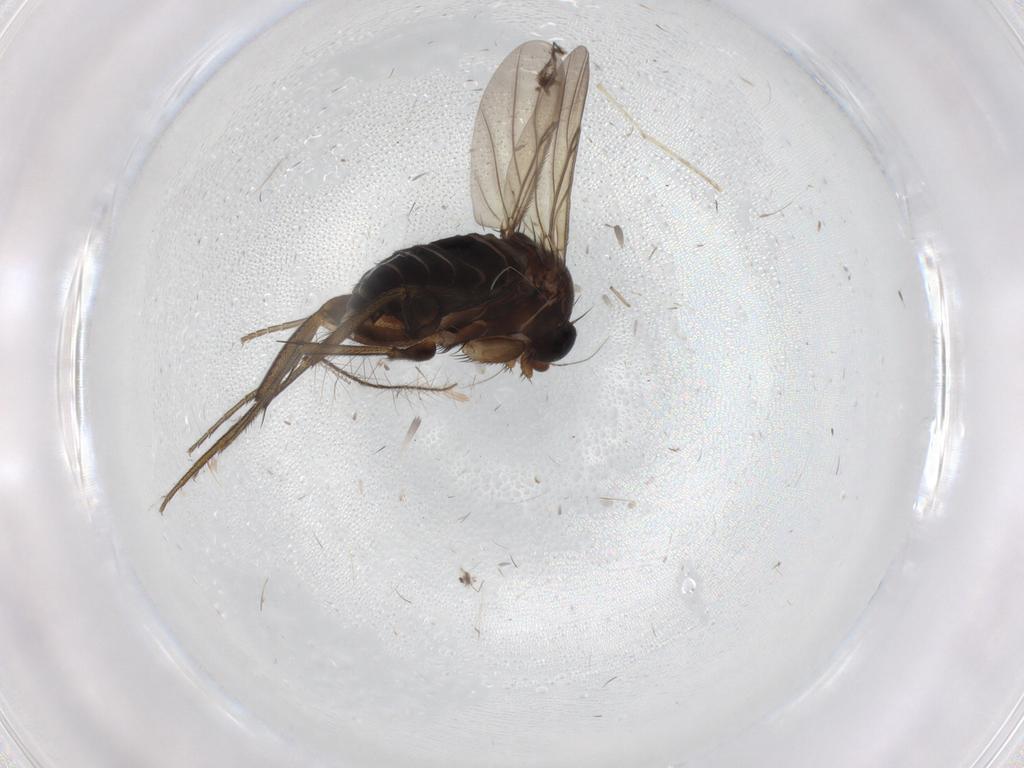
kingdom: Animalia
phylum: Arthropoda
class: Insecta
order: Diptera
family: Phoridae
